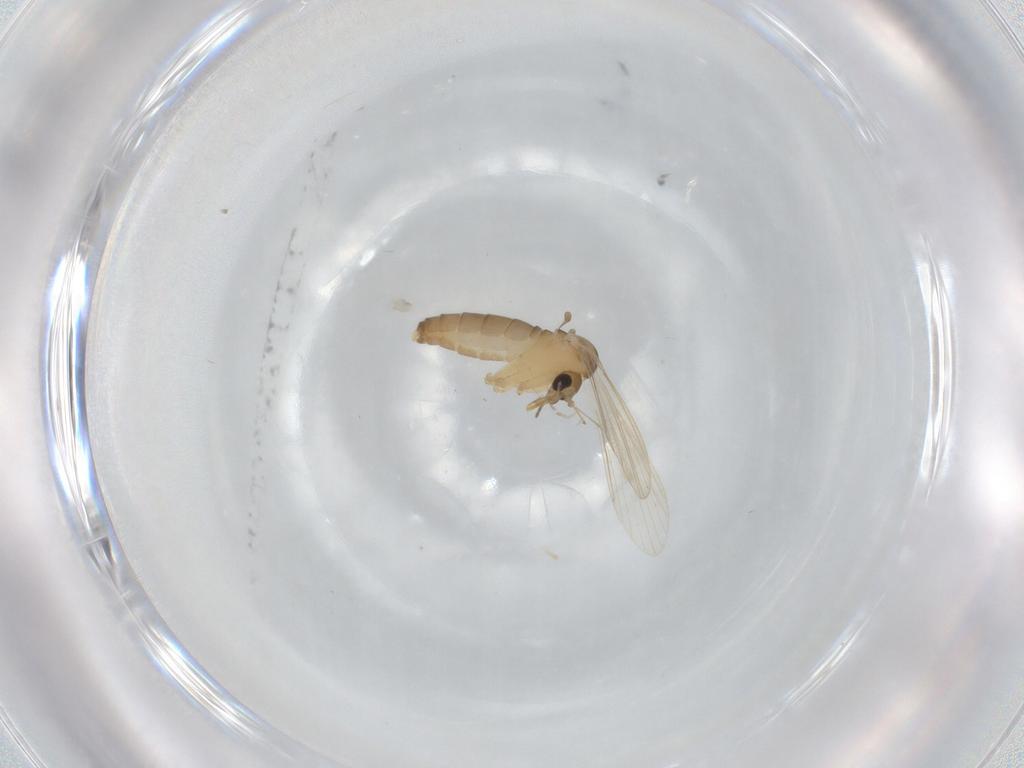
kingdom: Animalia
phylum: Arthropoda
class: Insecta
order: Diptera
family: Psychodidae
